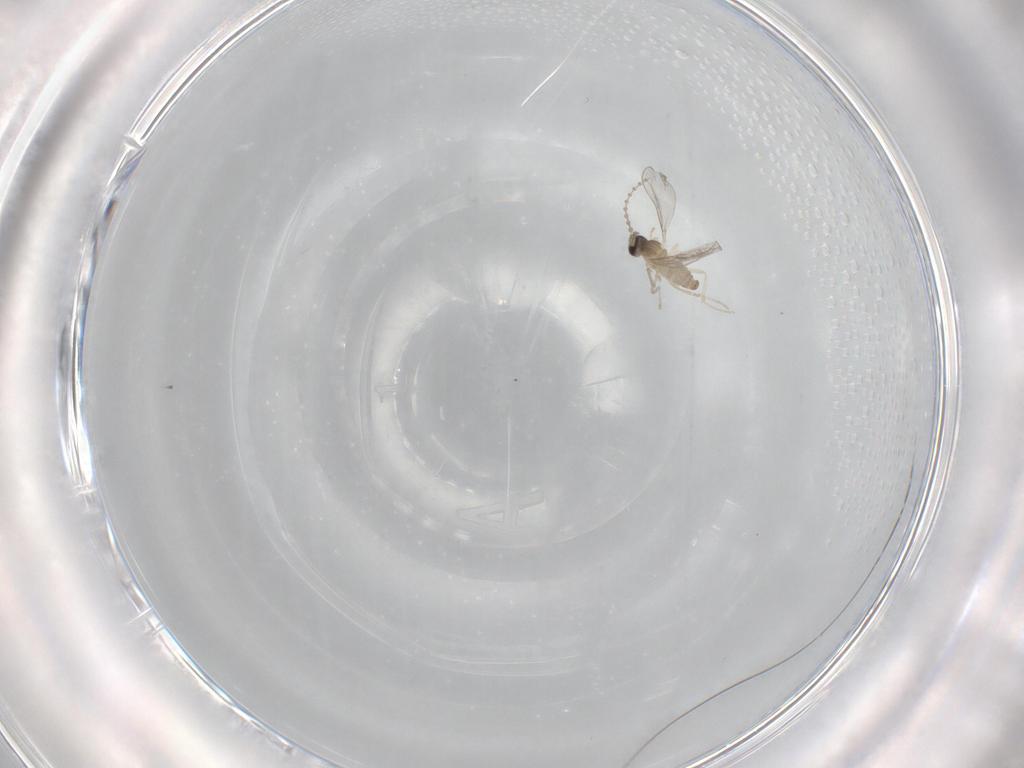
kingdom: Animalia
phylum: Arthropoda
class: Insecta
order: Diptera
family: Cecidomyiidae
